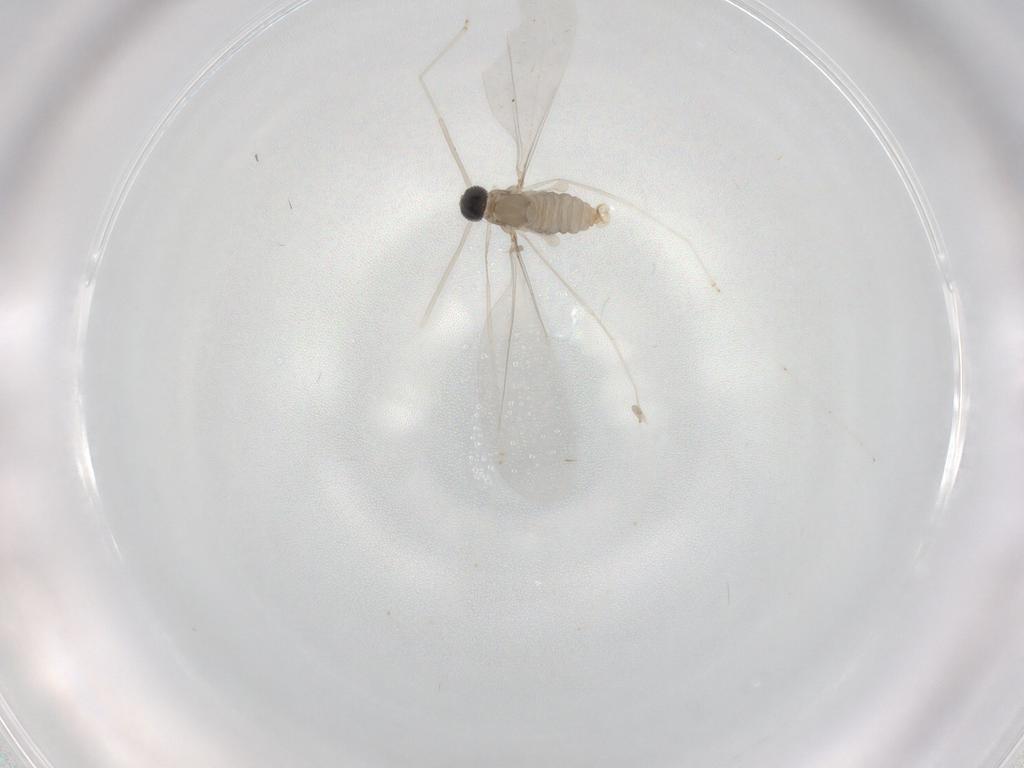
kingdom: Animalia
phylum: Arthropoda
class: Insecta
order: Diptera
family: Cecidomyiidae
